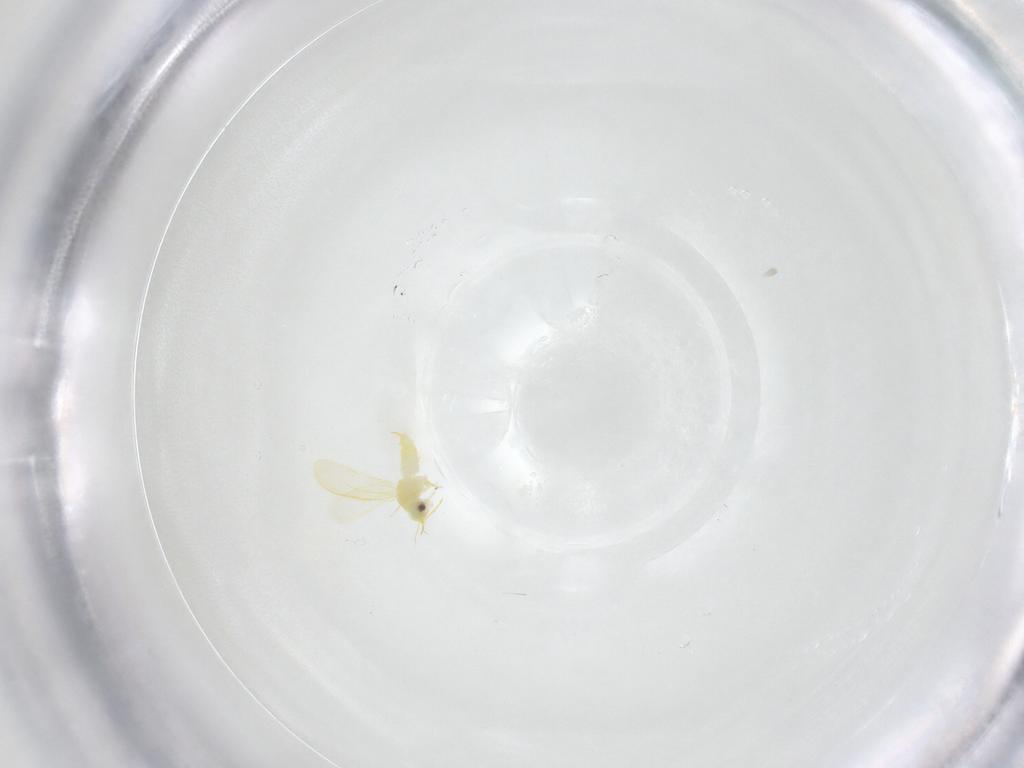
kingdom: Animalia
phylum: Arthropoda
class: Insecta
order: Hemiptera
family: Aleyrodidae
